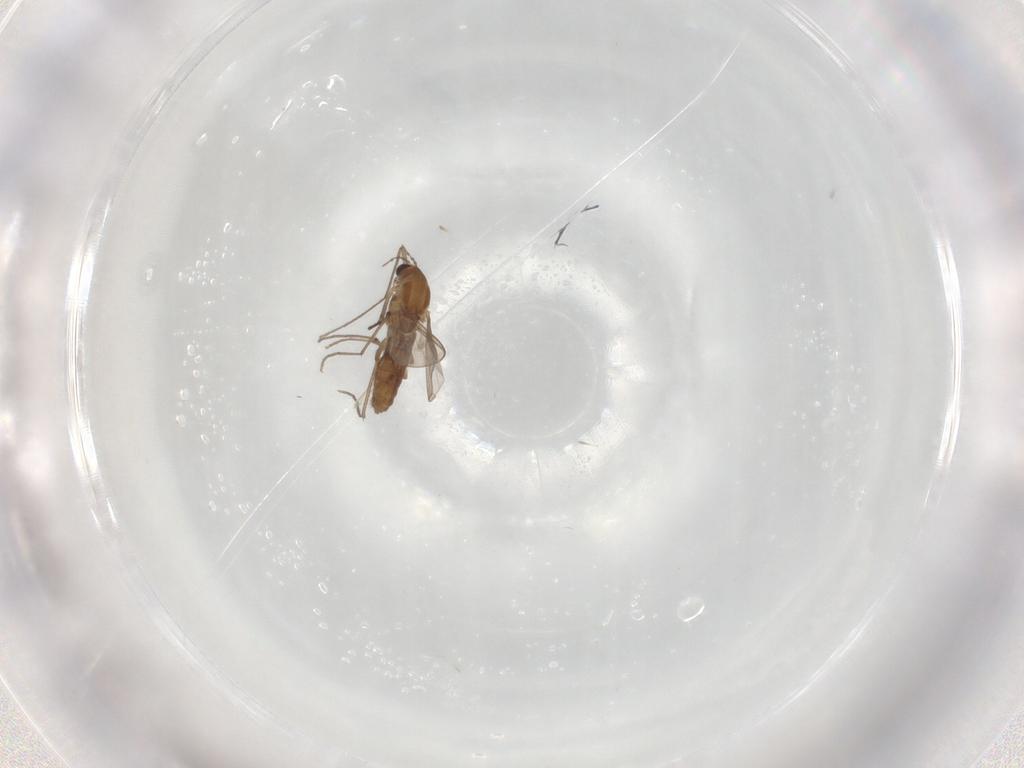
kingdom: Animalia
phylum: Arthropoda
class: Insecta
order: Diptera
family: Chironomidae
